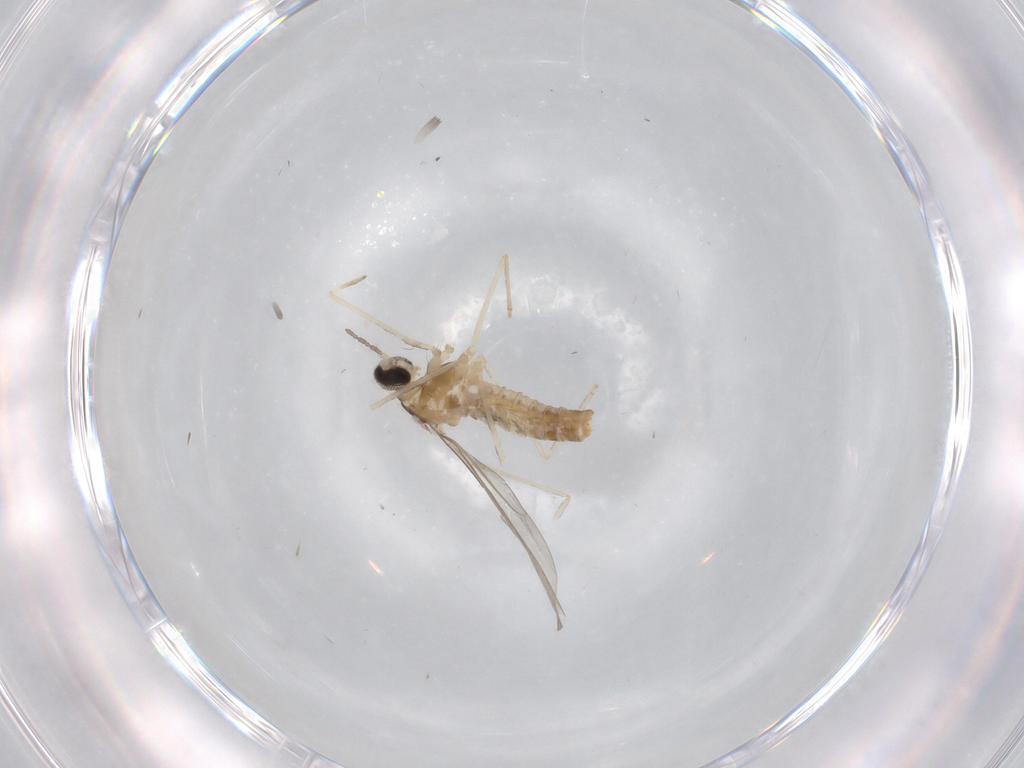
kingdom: Animalia
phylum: Arthropoda
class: Insecta
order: Diptera
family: Cecidomyiidae
